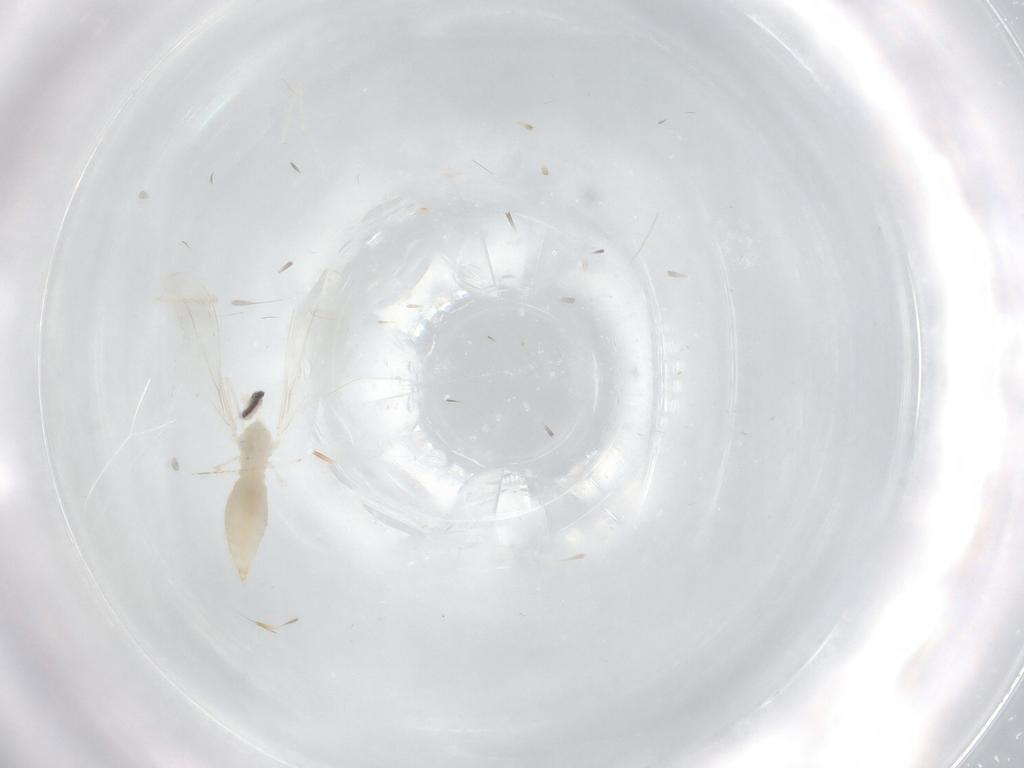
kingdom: Animalia
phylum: Arthropoda
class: Insecta
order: Diptera
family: Cecidomyiidae
